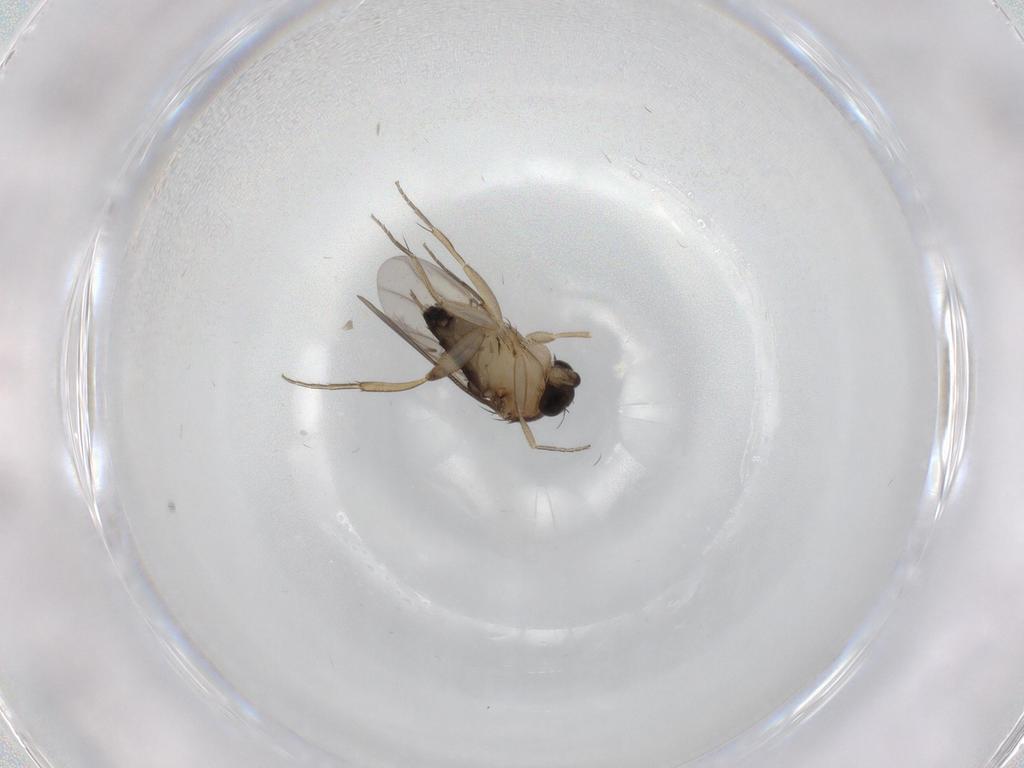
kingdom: Animalia
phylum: Arthropoda
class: Insecta
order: Diptera
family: Phoridae
